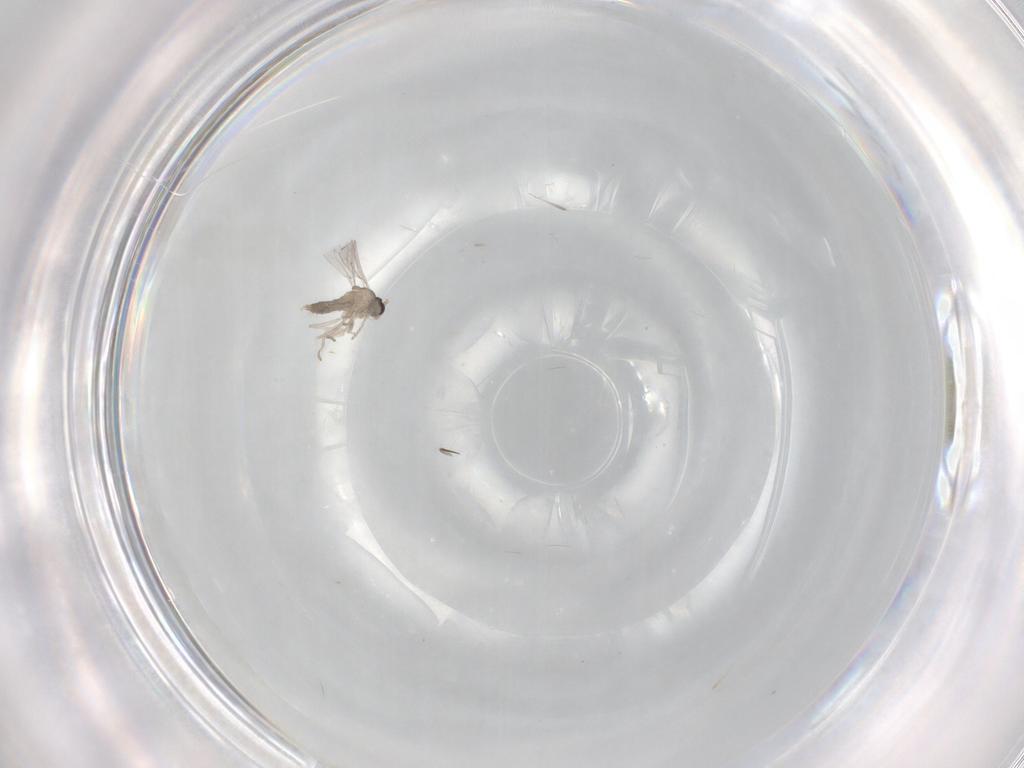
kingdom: Animalia
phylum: Arthropoda
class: Insecta
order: Diptera
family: Cecidomyiidae
